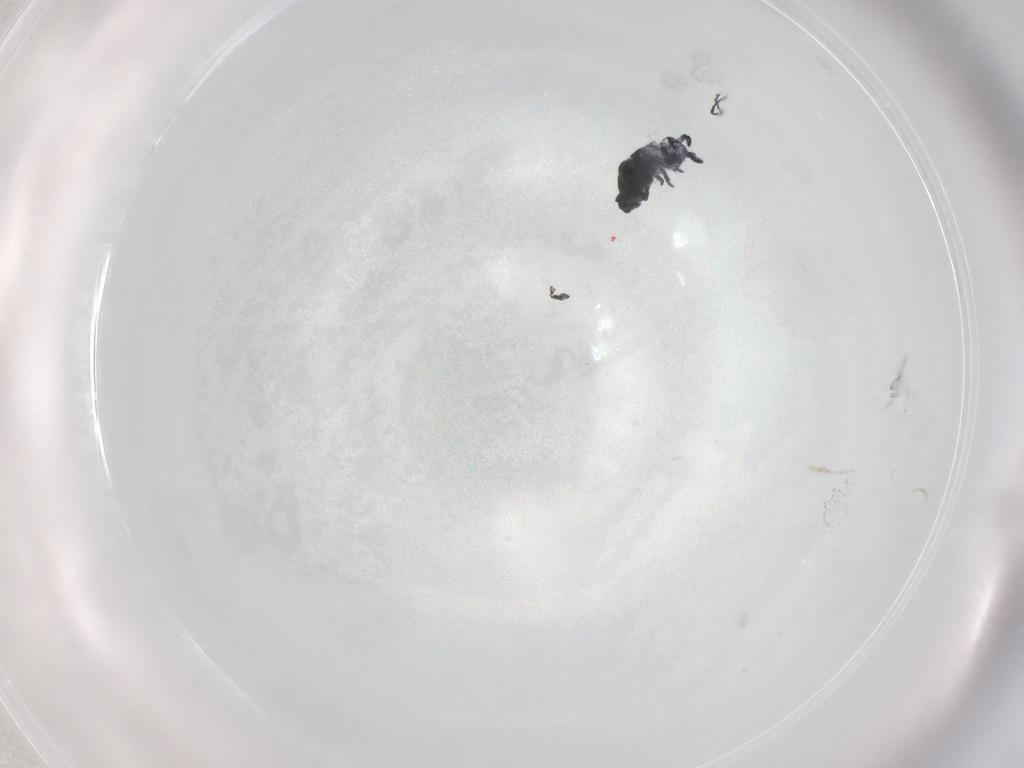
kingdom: Animalia
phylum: Arthropoda
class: Collembola
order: Poduromorpha
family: Hypogastruridae
